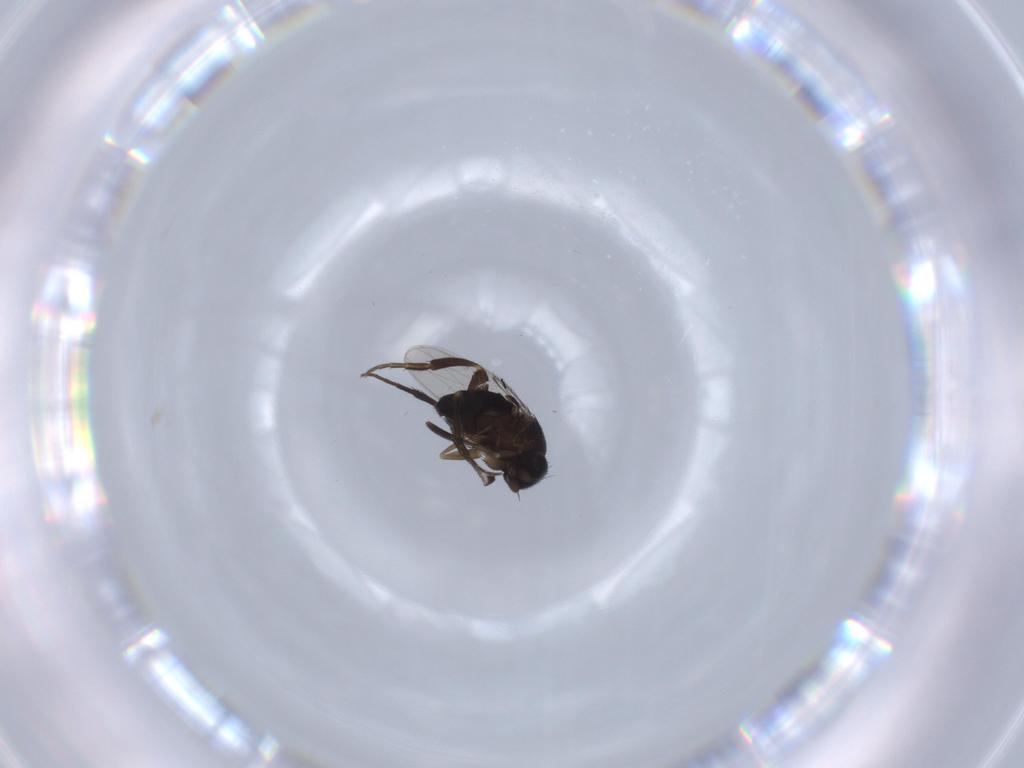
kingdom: Animalia
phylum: Arthropoda
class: Insecta
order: Diptera
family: Phoridae
